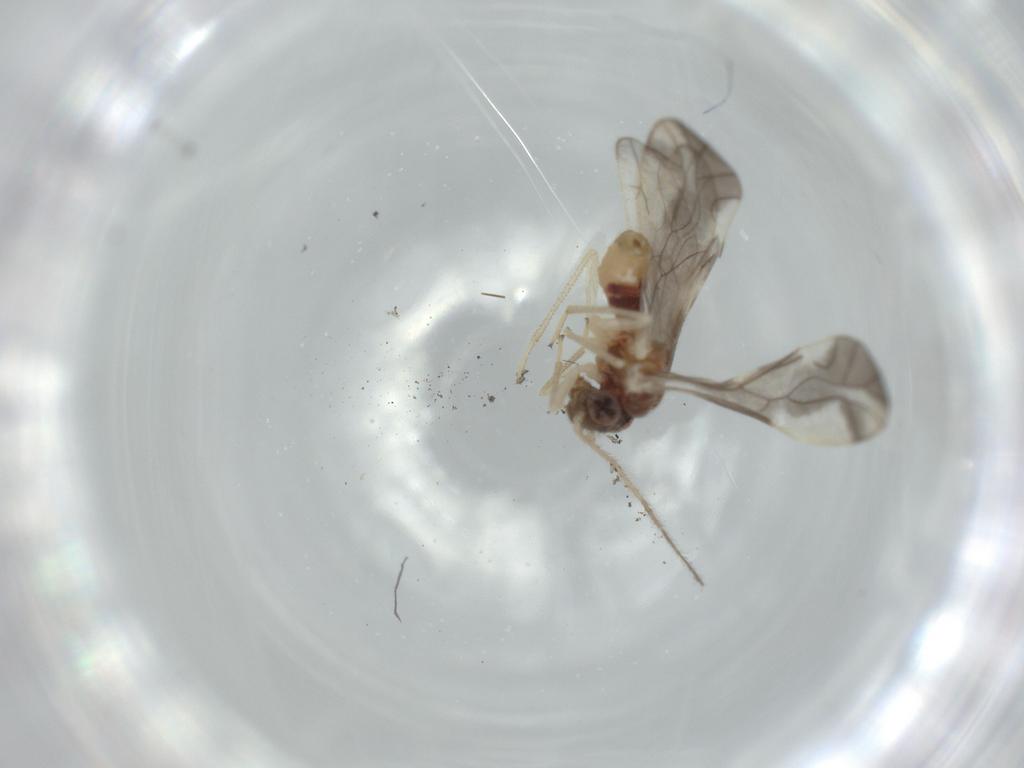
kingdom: Animalia
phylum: Arthropoda
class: Insecta
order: Psocodea
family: Caeciliusidae
